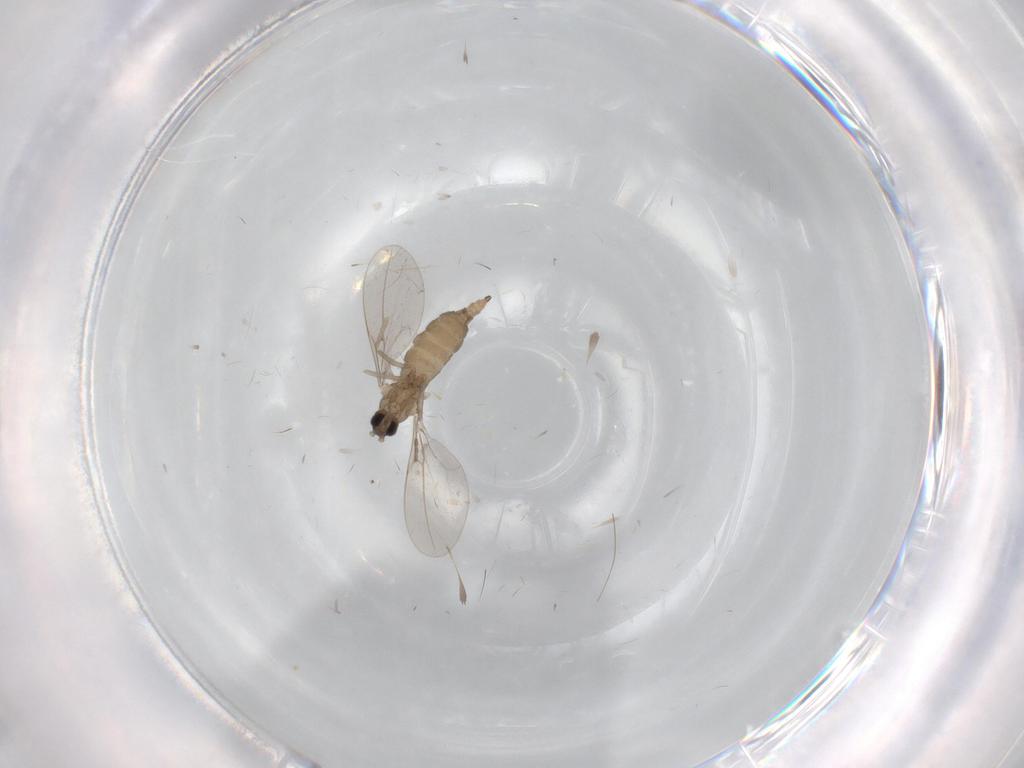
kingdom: Animalia
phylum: Arthropoda
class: Insecta
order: Diptera
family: Cecidomyiidae
